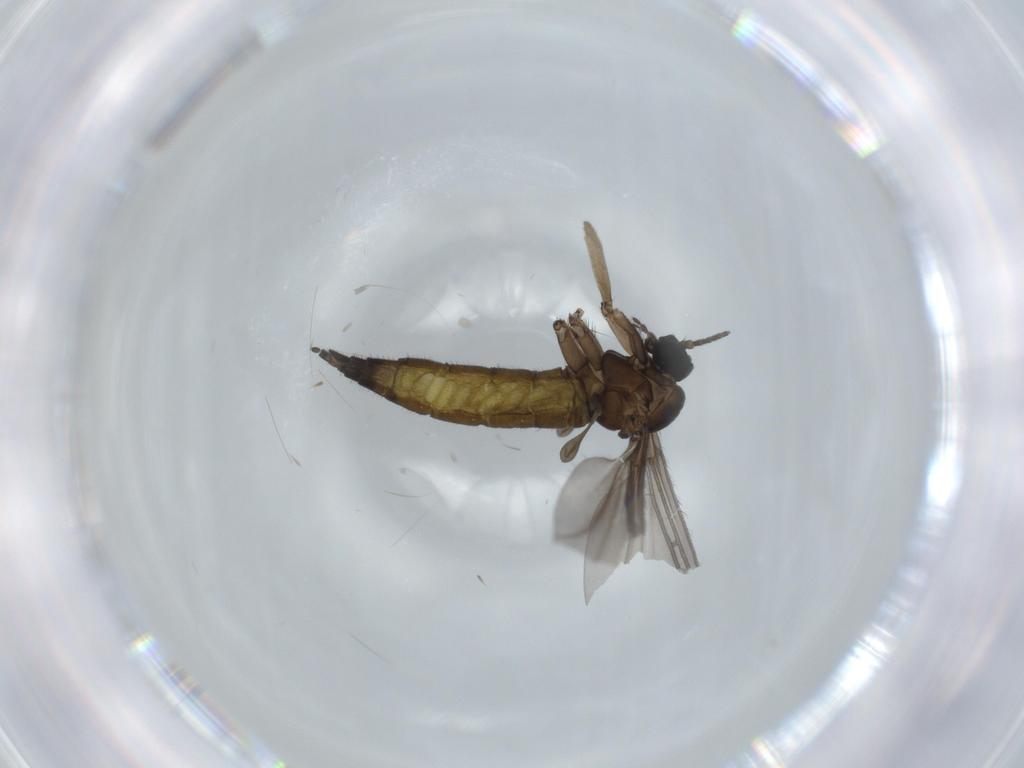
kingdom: Animalia
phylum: Arthropoda
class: Insecta
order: Diptera
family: Sciaridae
